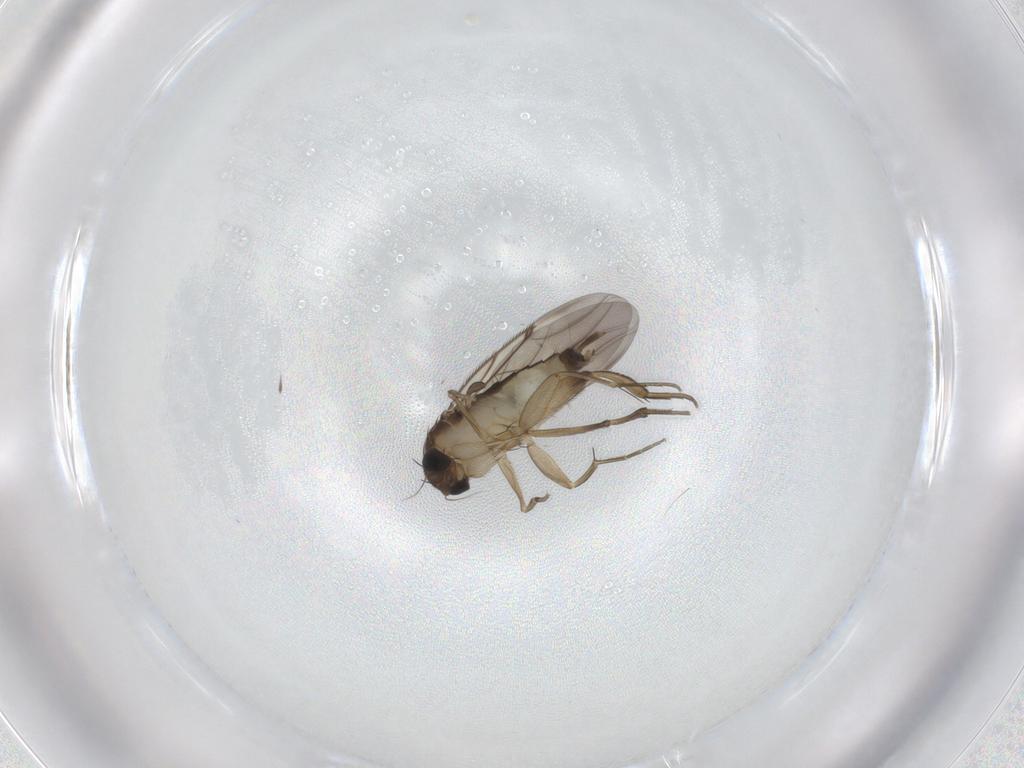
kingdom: Animalia
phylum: Arthropoda
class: Insecta
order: Diptera
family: Phoridae
